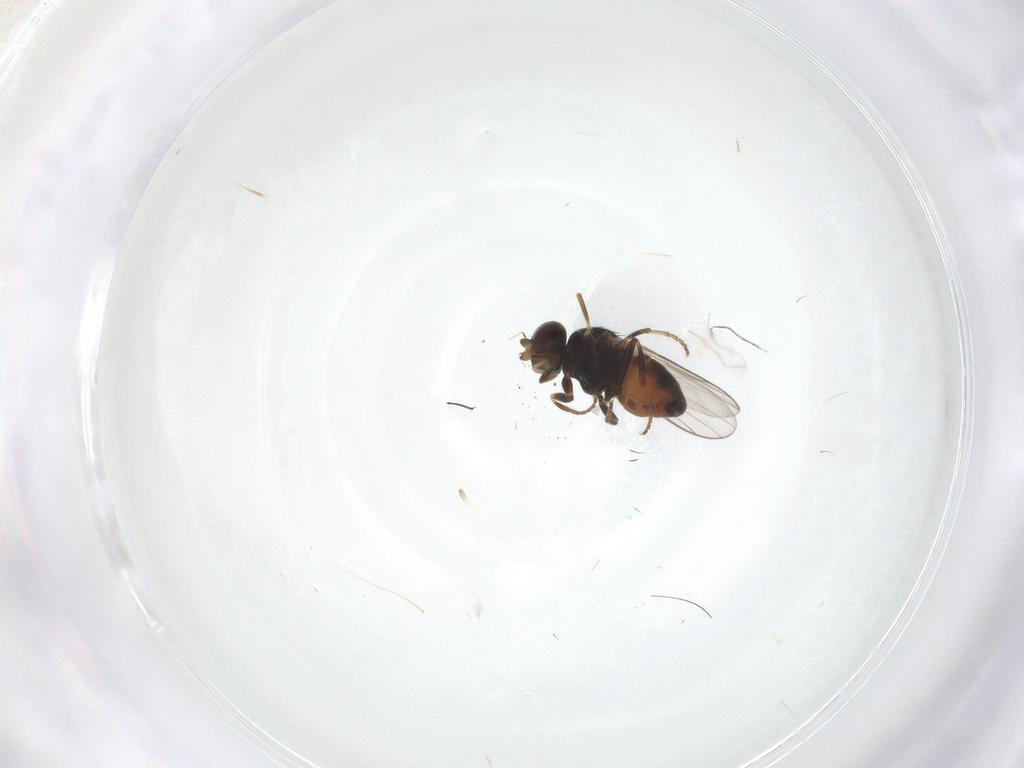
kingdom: Animalia
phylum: Arthropoda
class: Insecta
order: Diptera
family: Chloropidae
